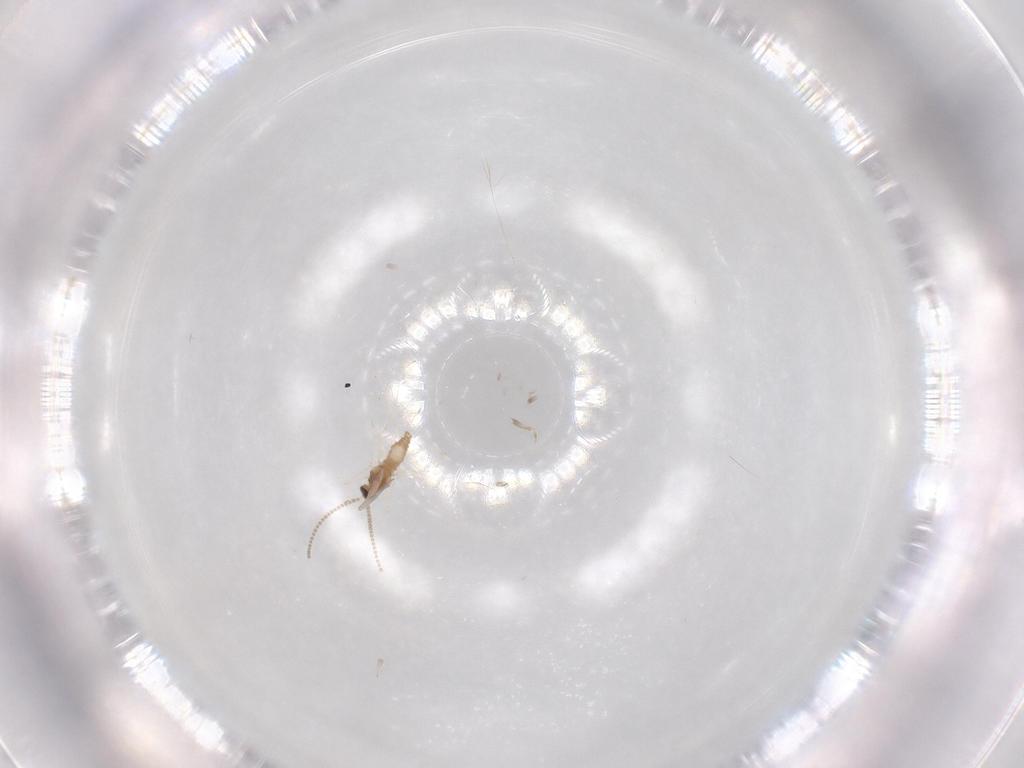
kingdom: Animalia
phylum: Arthropoda
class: Insecta
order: Diptera
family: Cecidomyiidae
